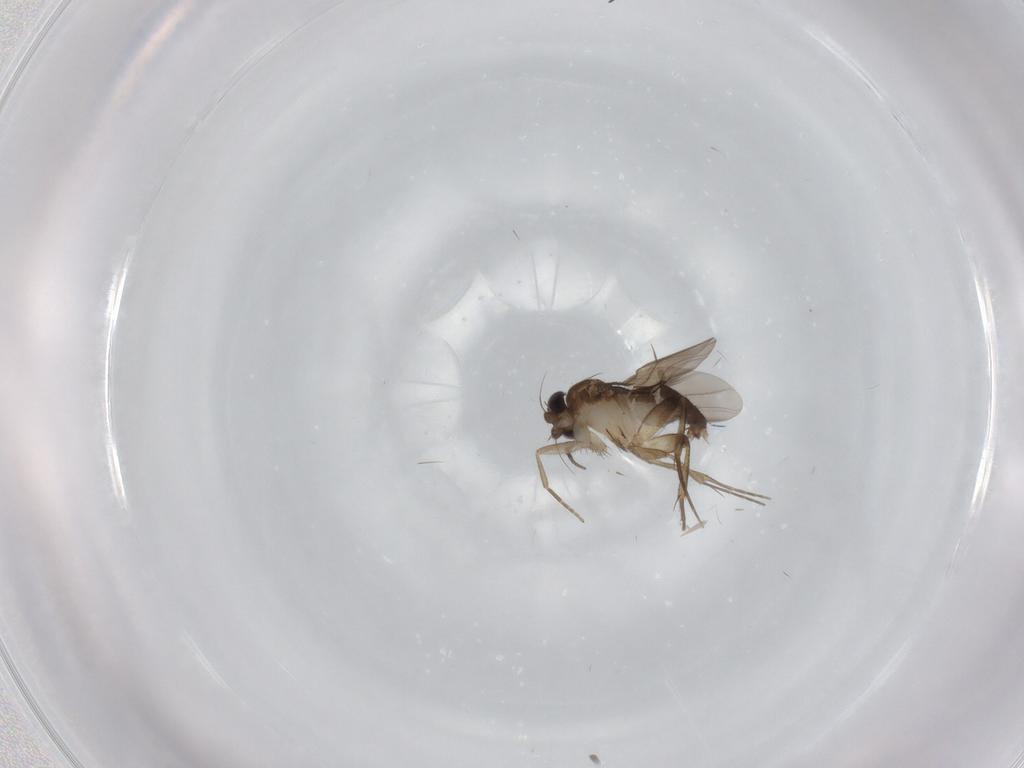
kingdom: Animalia
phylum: Arthropoda
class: Insecta
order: Diptera
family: Phoridae
